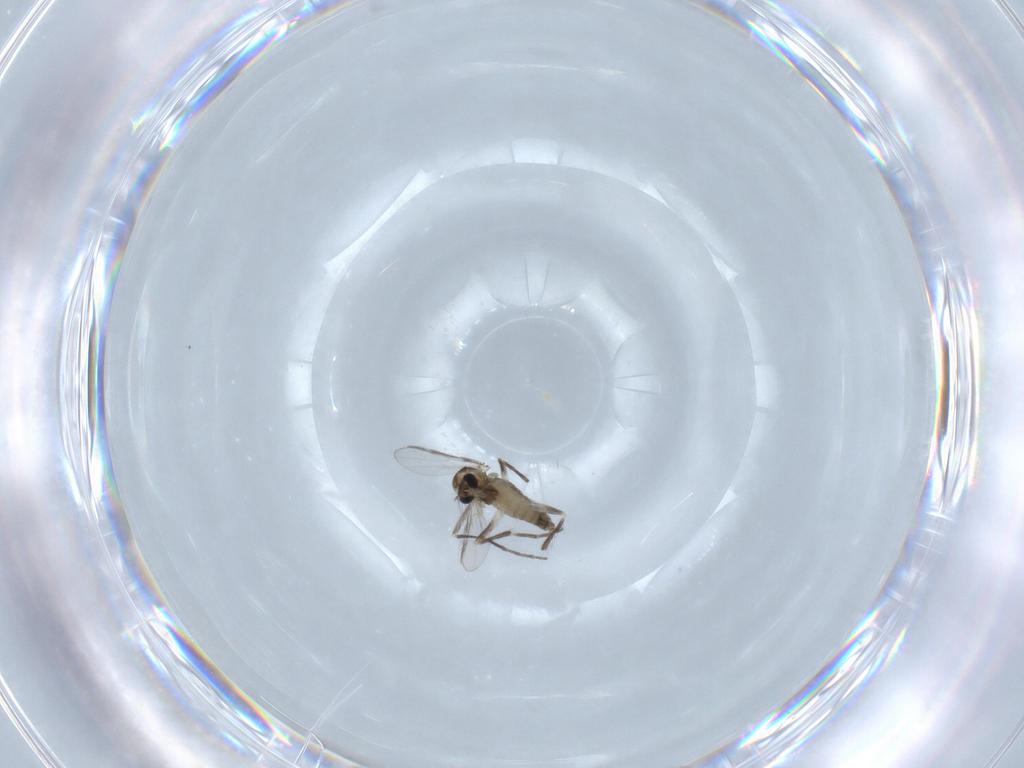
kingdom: Animalia
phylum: Arthropoda
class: Insecta
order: Diptera
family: Chironomidae
